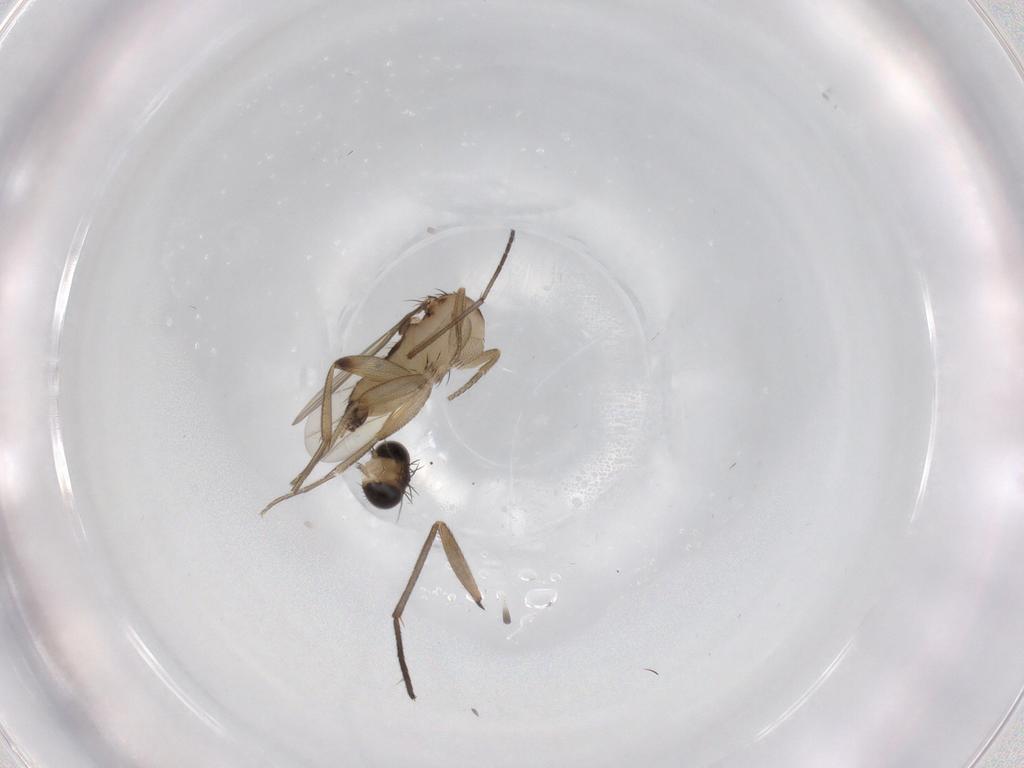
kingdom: Animalia
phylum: Arthropoda
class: Insecta
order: Diptera
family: Phoridae
